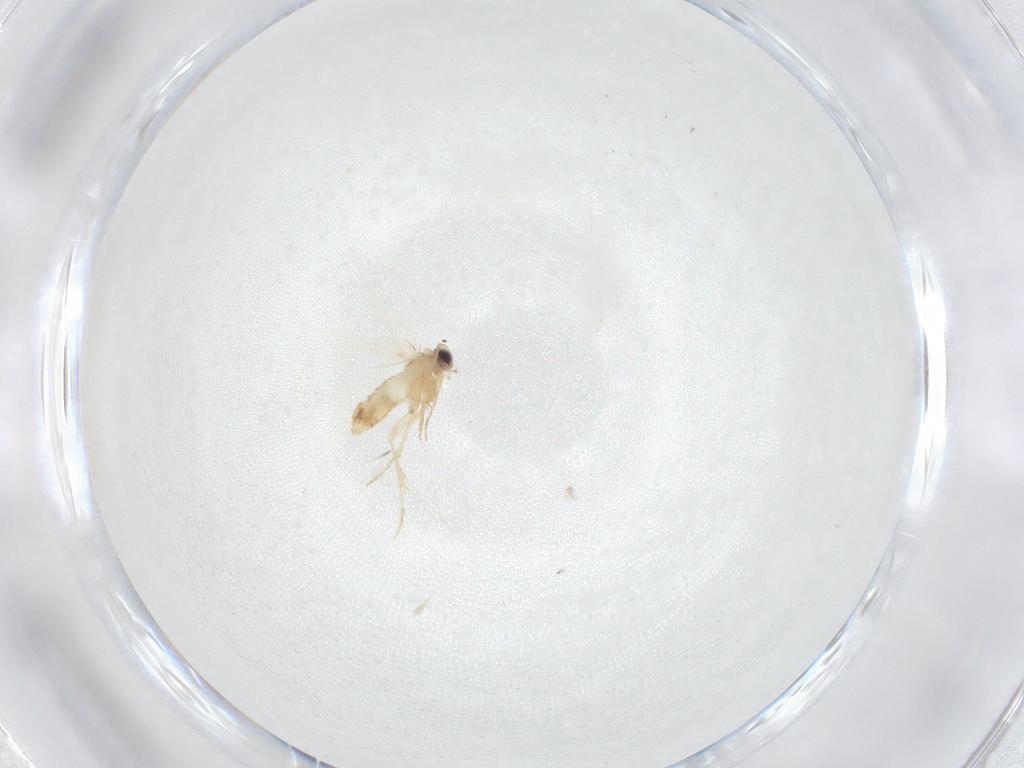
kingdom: Animalia
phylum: Arthropoda
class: Insecta
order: Lepidoptera
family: Nepticulidae
